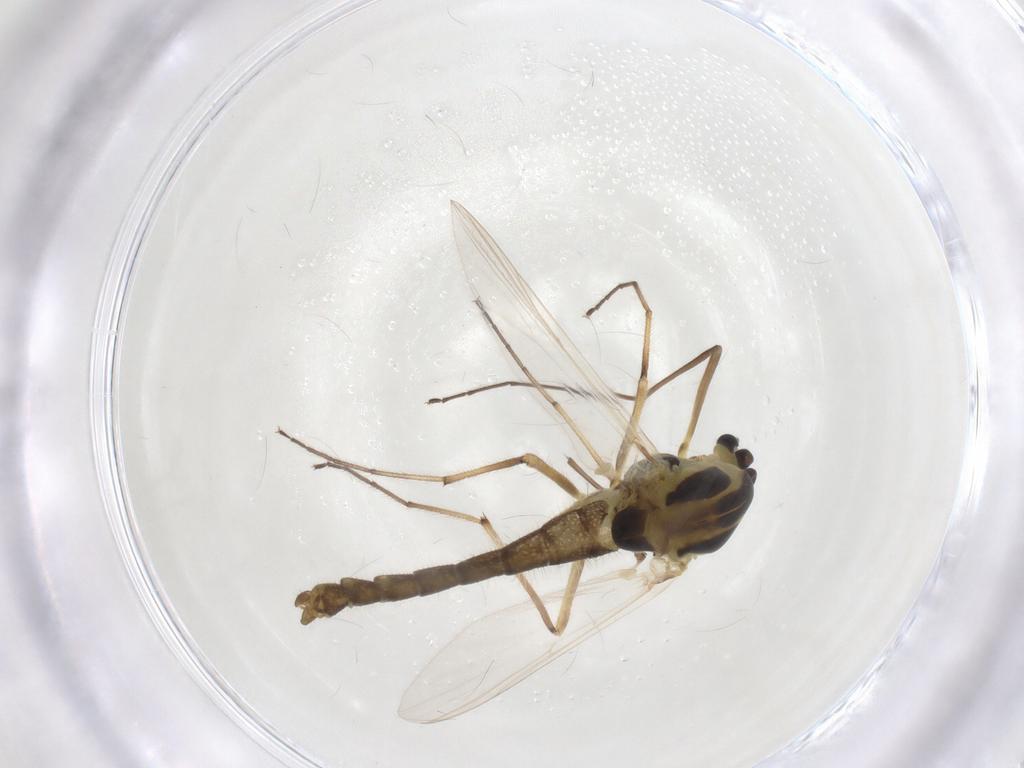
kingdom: Animalia
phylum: Arthropoda
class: Insecta
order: Diptera
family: Chironomidae
